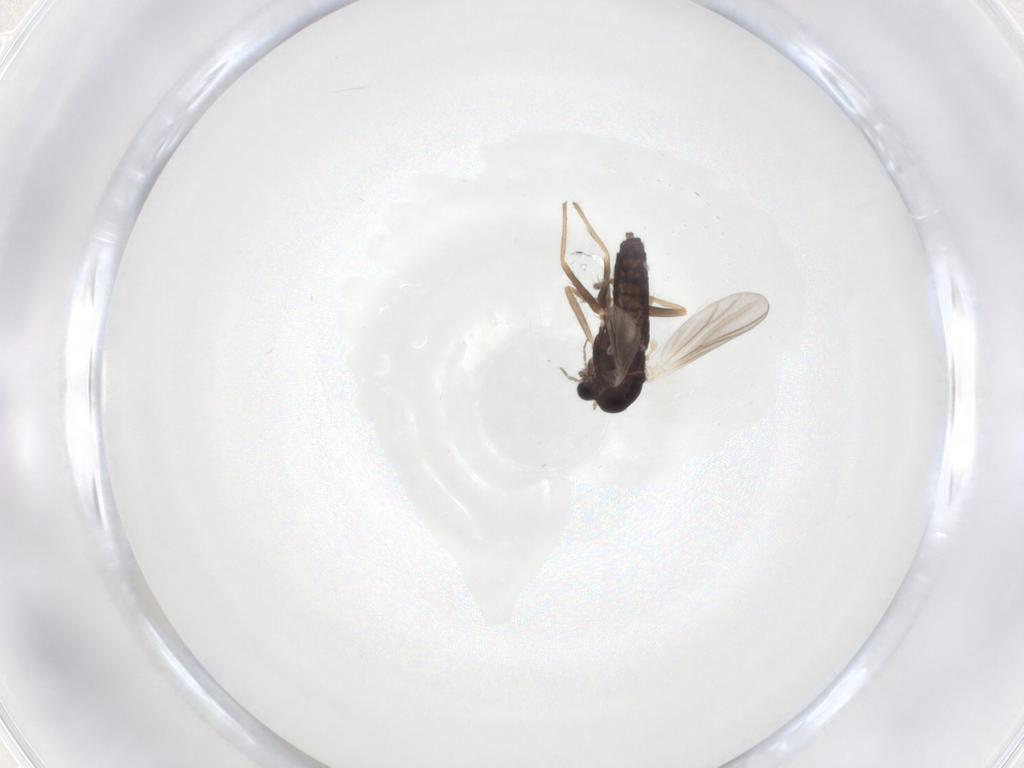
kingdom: Animalia
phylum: Arthropoda
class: Insecta
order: Diptera
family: Chironomidae
